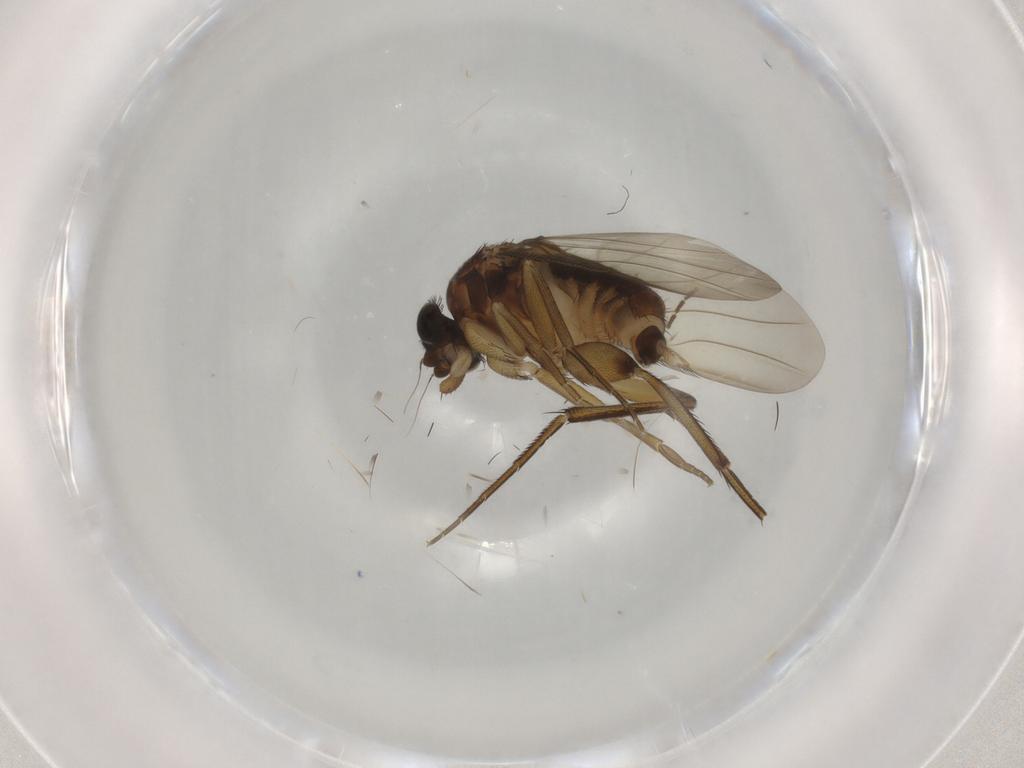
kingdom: Animalia
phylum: Arthropoda
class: Insecta
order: Diptera
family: Phoridae
